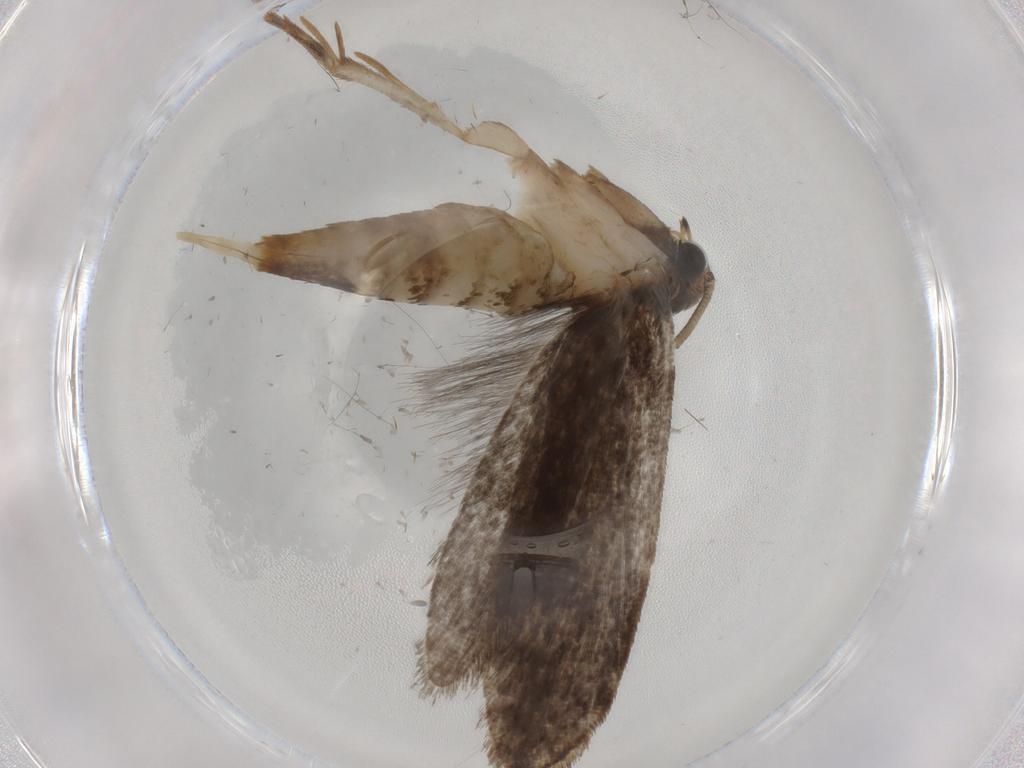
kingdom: Animalia
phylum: Arthropoda
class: Insecta
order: Lepidoptera
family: Tineidae
